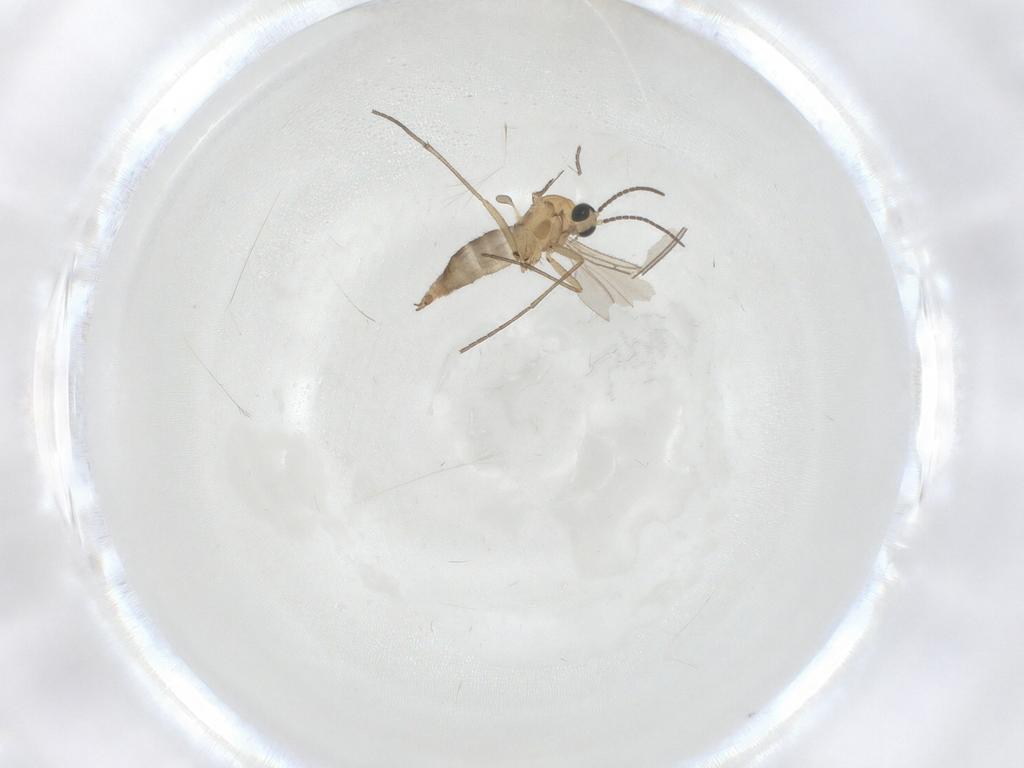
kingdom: Animalia
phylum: Arthropoda
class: Insecta
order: Diptera
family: Sciaridae
